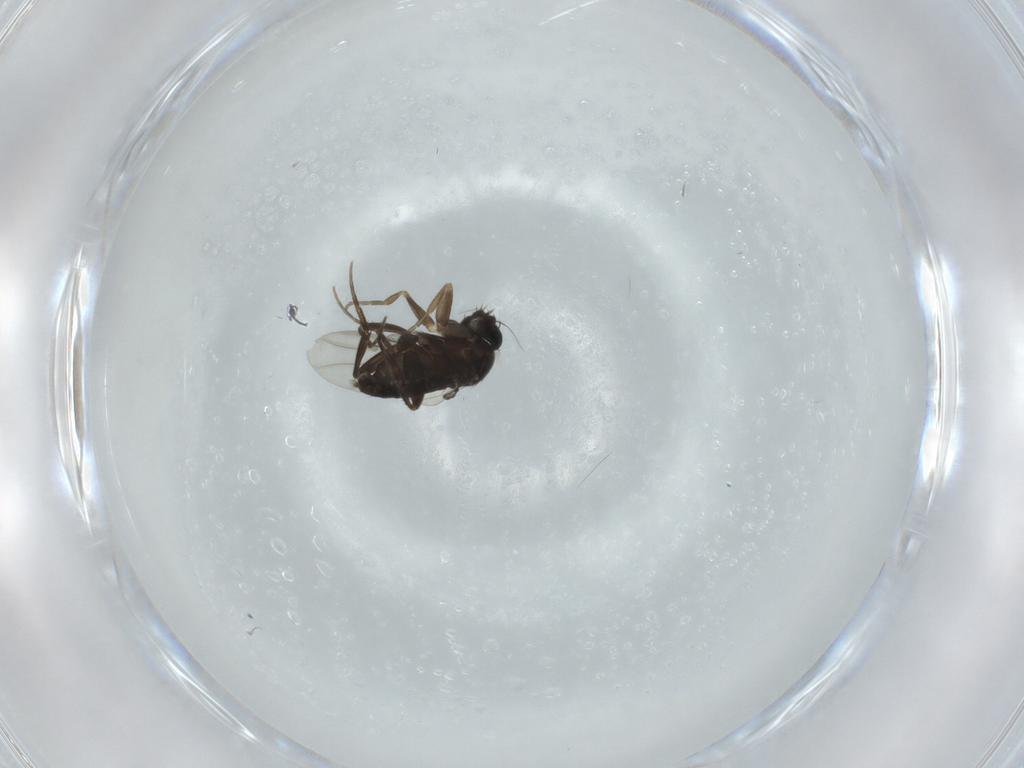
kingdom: Animalia
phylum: Arthropoda
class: Insecta
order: Diptera
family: Phoridae
